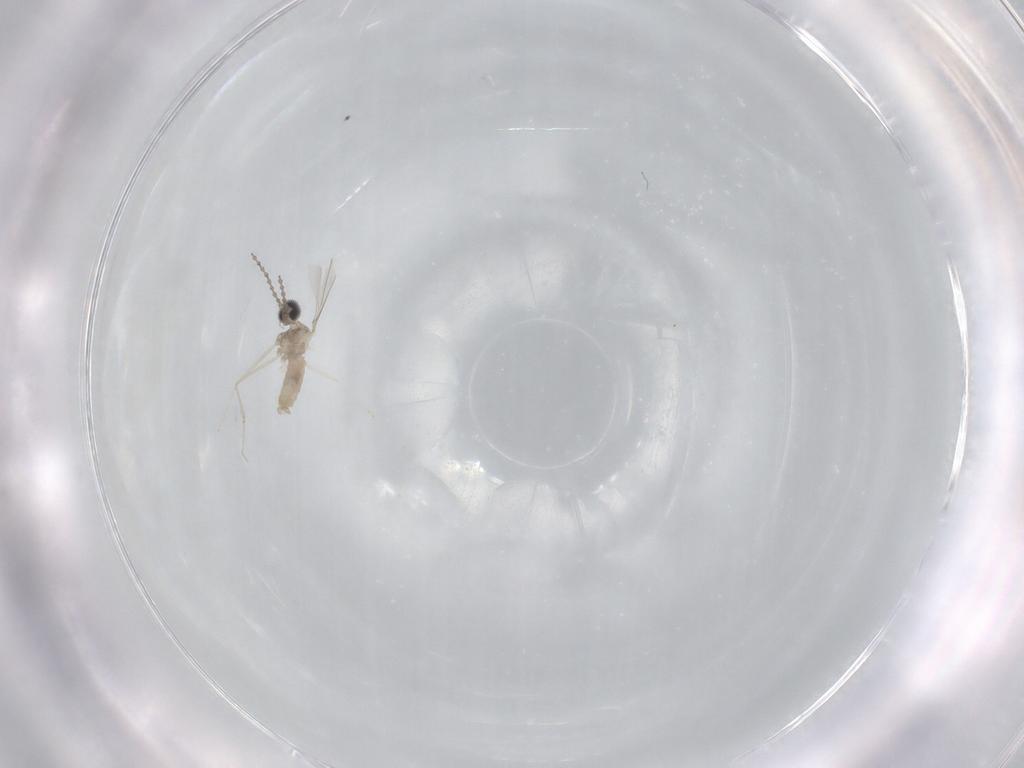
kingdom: Animalia
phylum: Arthropoda
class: Insecta
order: Diptera
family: Cecidomyiidae
